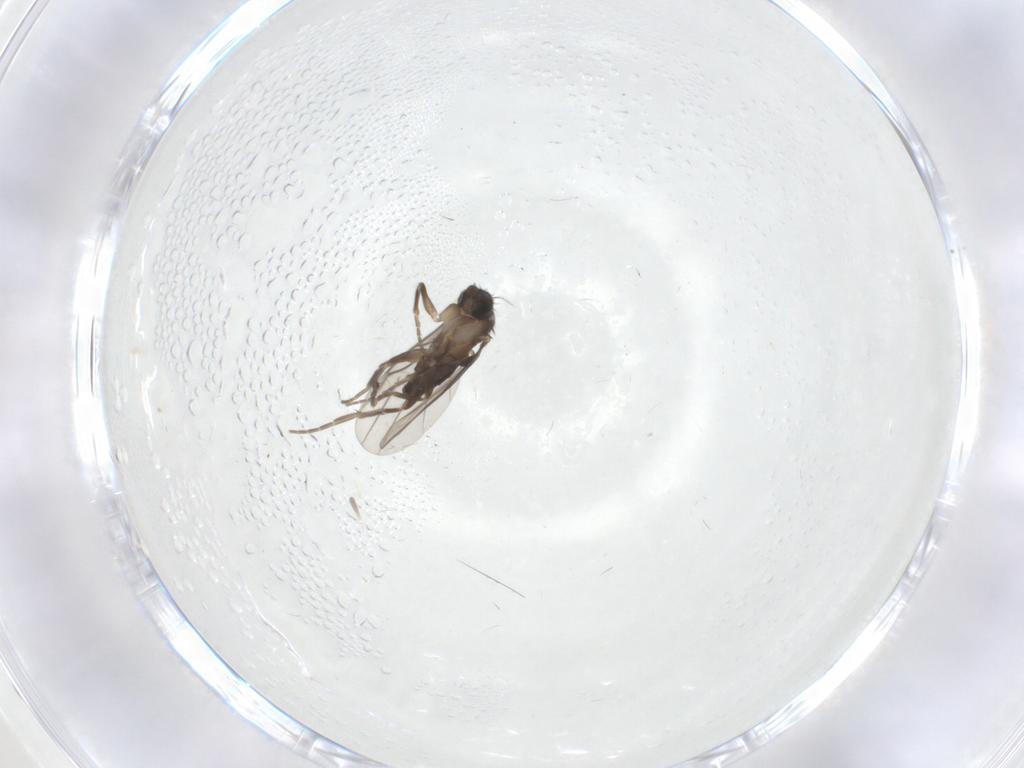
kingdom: Animalia
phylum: Arthropoda
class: Insecta
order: Diptera
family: Phoridae
